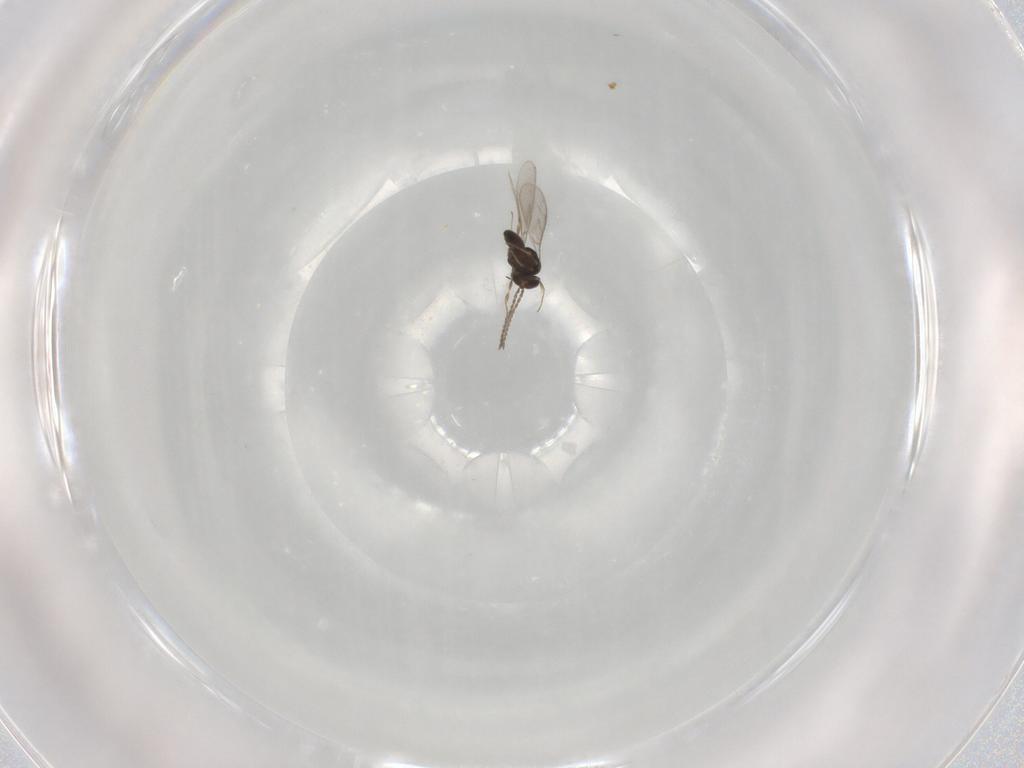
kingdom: Animalia
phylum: Arthropoda
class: Insecta
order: Hymenoptera
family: Scelionidae
